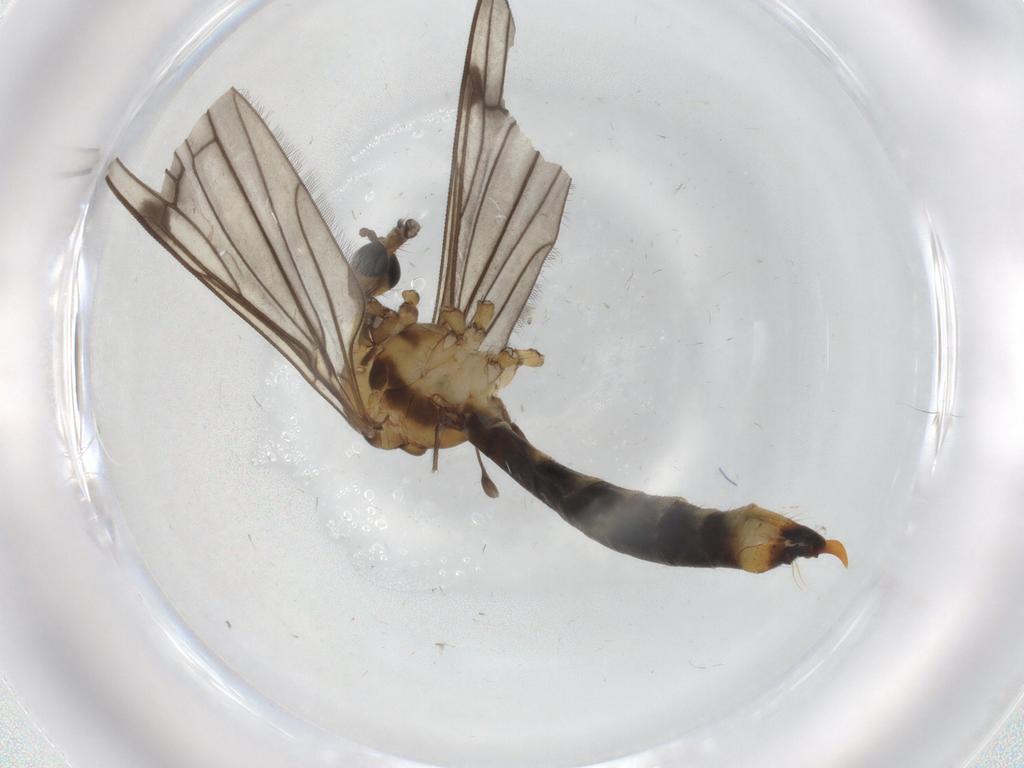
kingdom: Animalia
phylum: Arthropoda
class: Insecta
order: Diptera
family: Limoniidae
